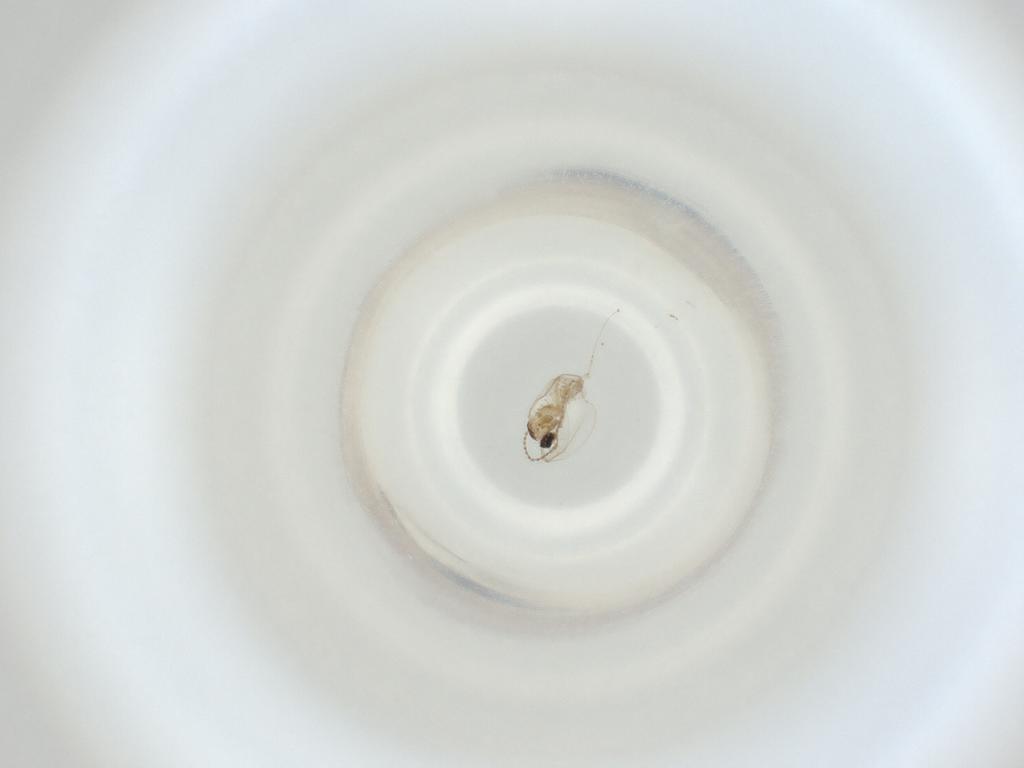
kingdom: Animalia
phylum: Arthropoda
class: Insecta
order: Diptera
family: Cecidomyiidae
